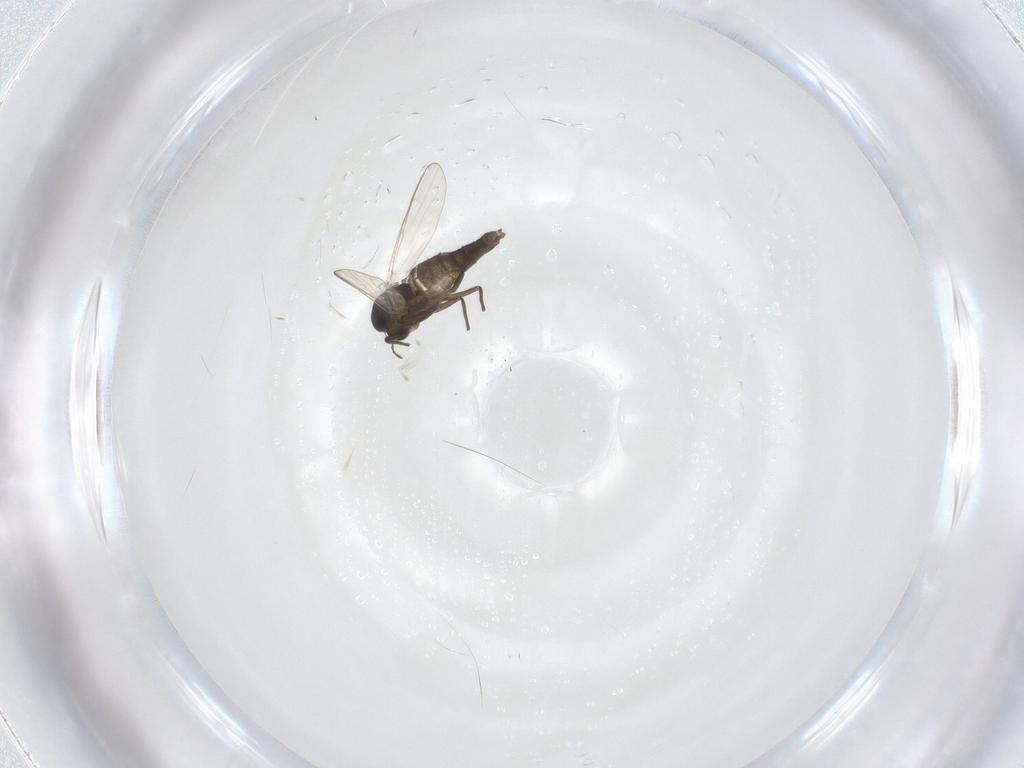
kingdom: Animalia
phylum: Arthropoda
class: Insecta
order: Diptera
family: Chironomidae
